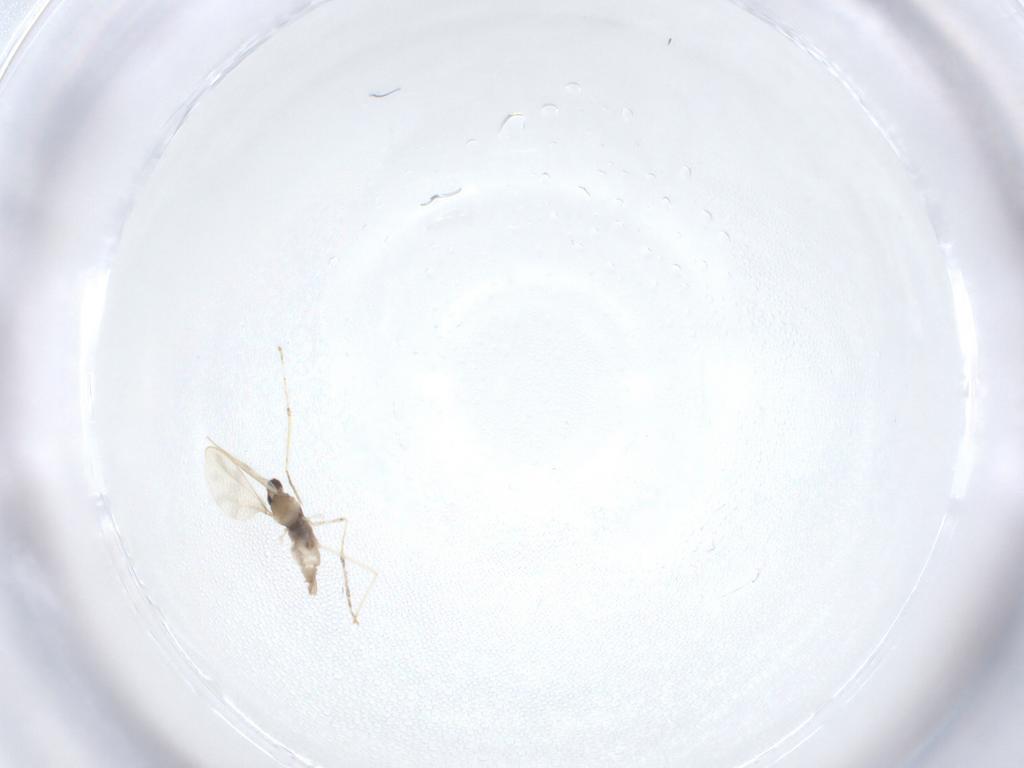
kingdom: Animalia
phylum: Arthropoda
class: Insecta
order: Diptera
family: Cecidomyiidae
